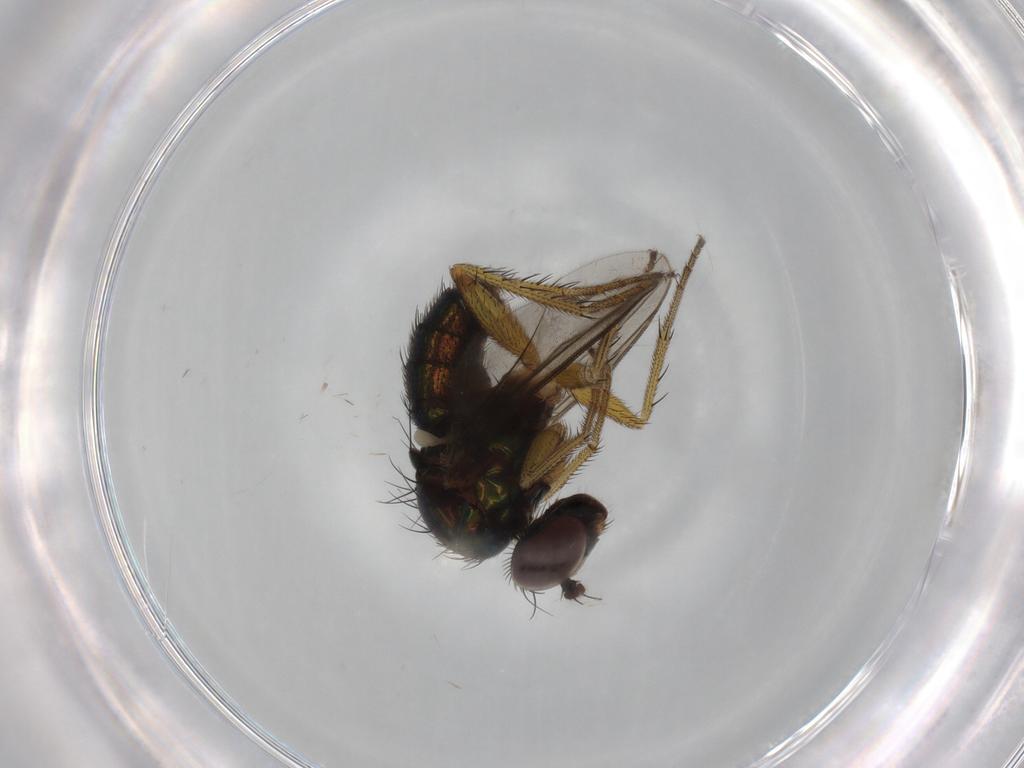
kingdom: Animalia
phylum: Arthropoda
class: Insecta
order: Diptera
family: Dolichopodidae
